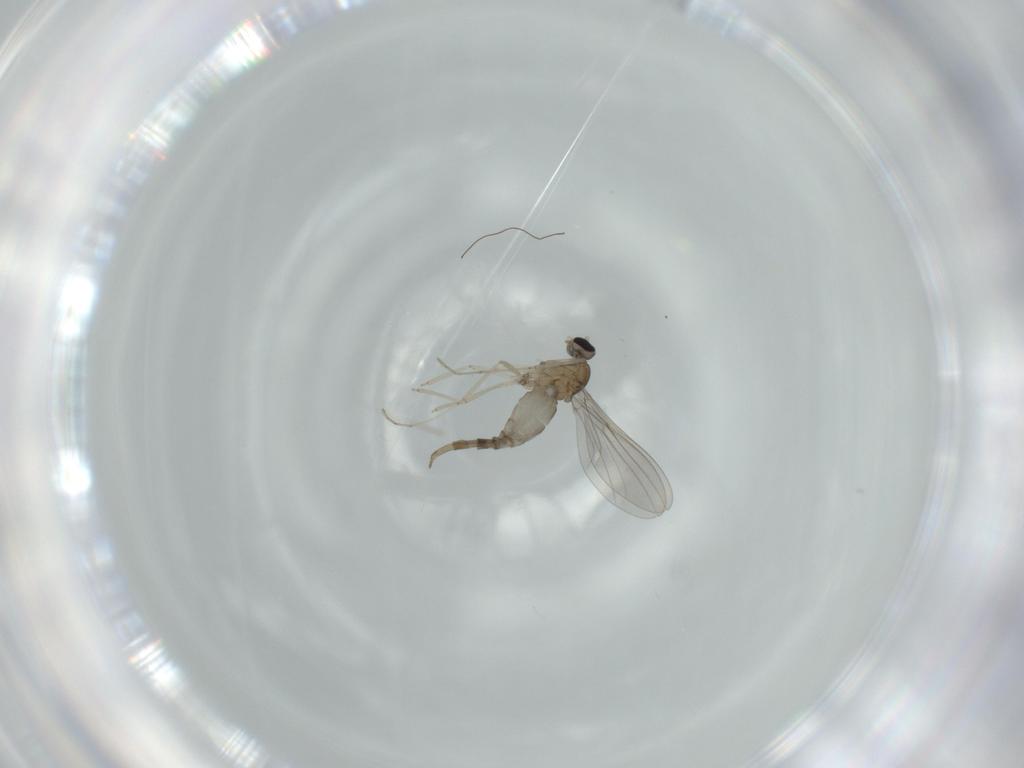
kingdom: Animalia
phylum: Arthropoda
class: Insecta
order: Diptera
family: Cecidomyiidae
